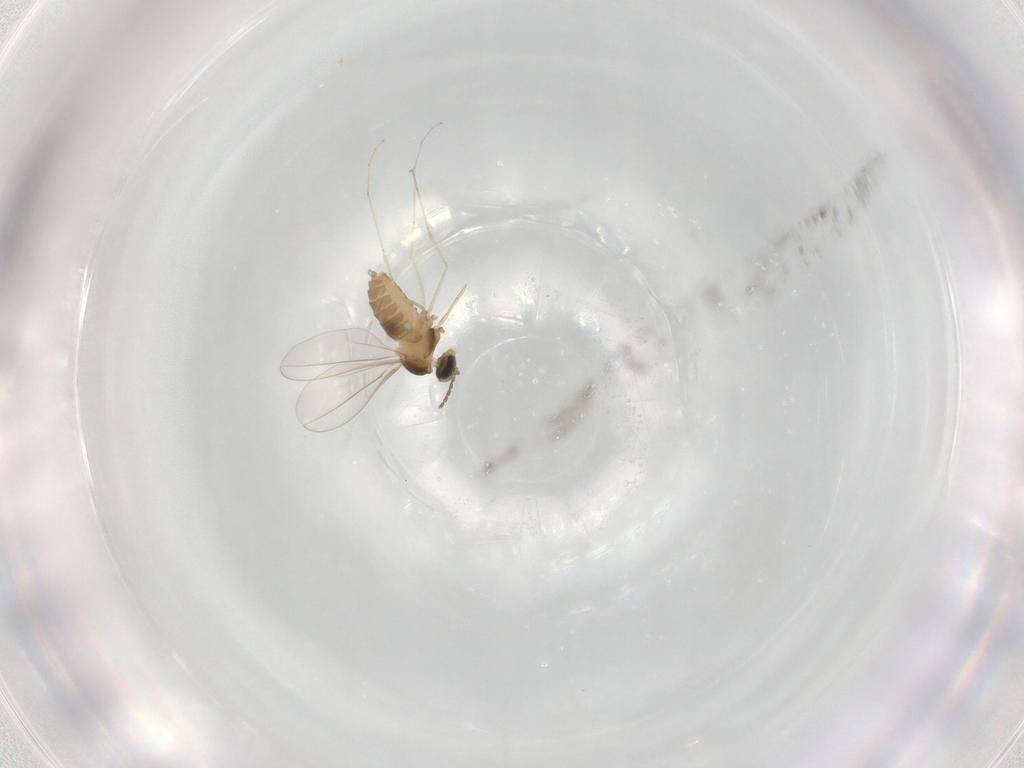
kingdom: Animalia
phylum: Arthropoda
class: Insecta
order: Diptera
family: Cecidomyiidae
